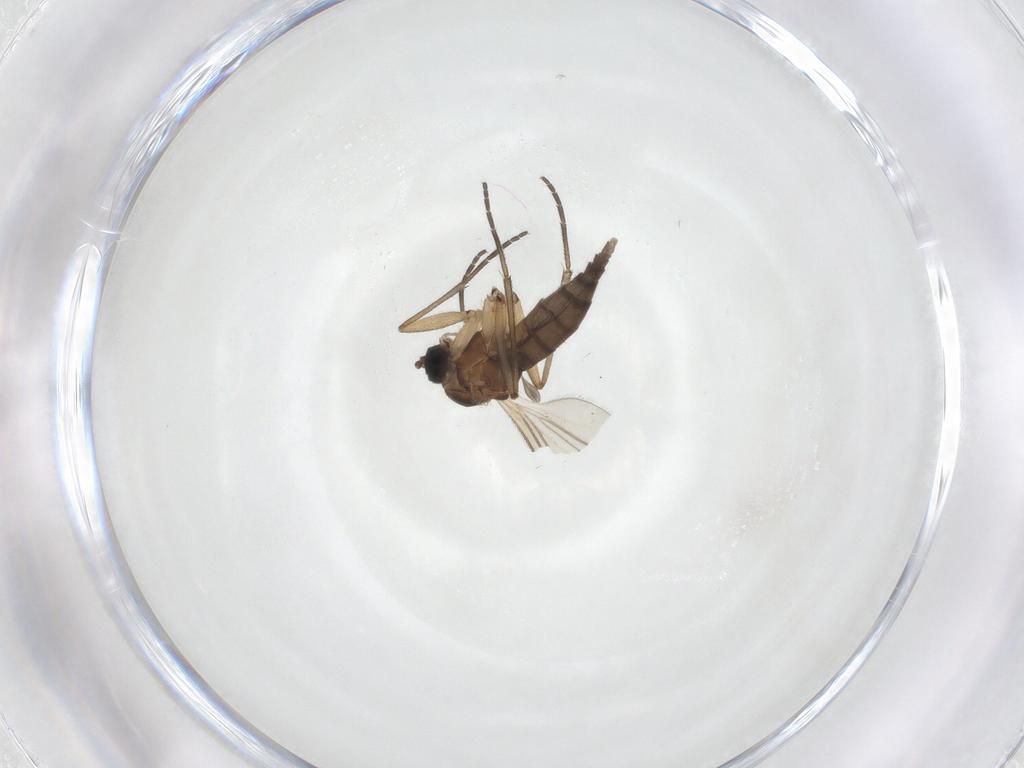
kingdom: Animalia
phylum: Arthropoda
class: Insecta
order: Diptera
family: Sciaridae
